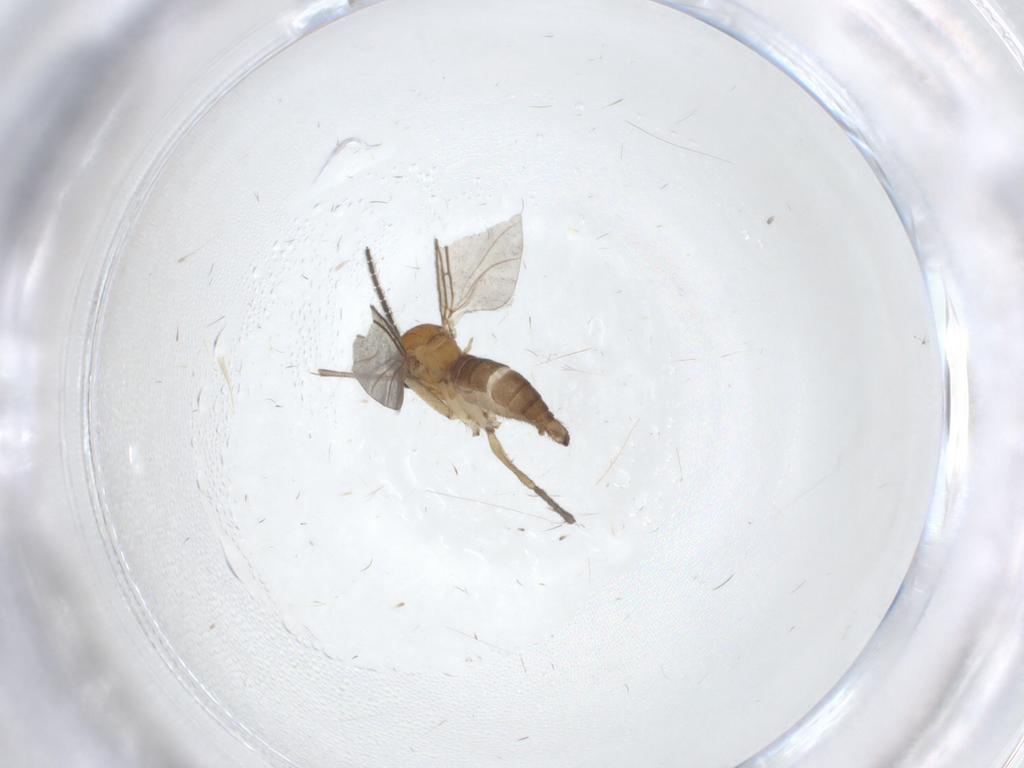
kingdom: Animalia
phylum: Arthropoda
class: Insecta
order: Diptera
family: Sciaridae
